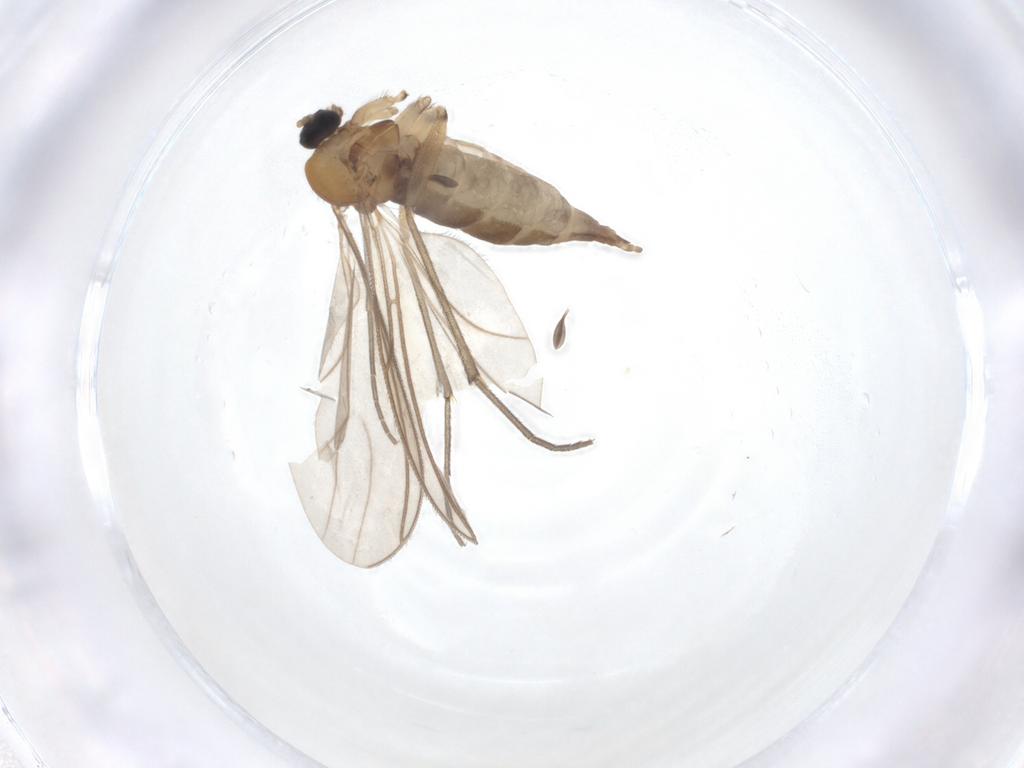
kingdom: Animalia
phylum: Arthropoda
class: Insecta
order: Diptera
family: Sciaridae
